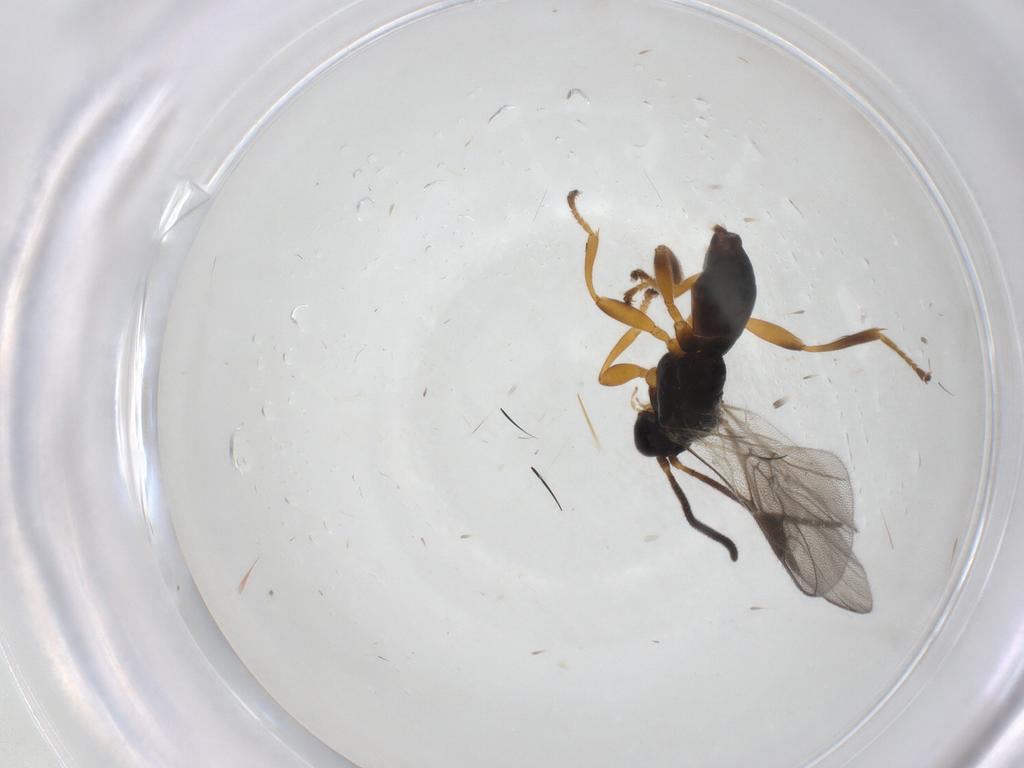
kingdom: Animalia
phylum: Arthropoda
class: Insecta
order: Hymenoptera
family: Braconidae
